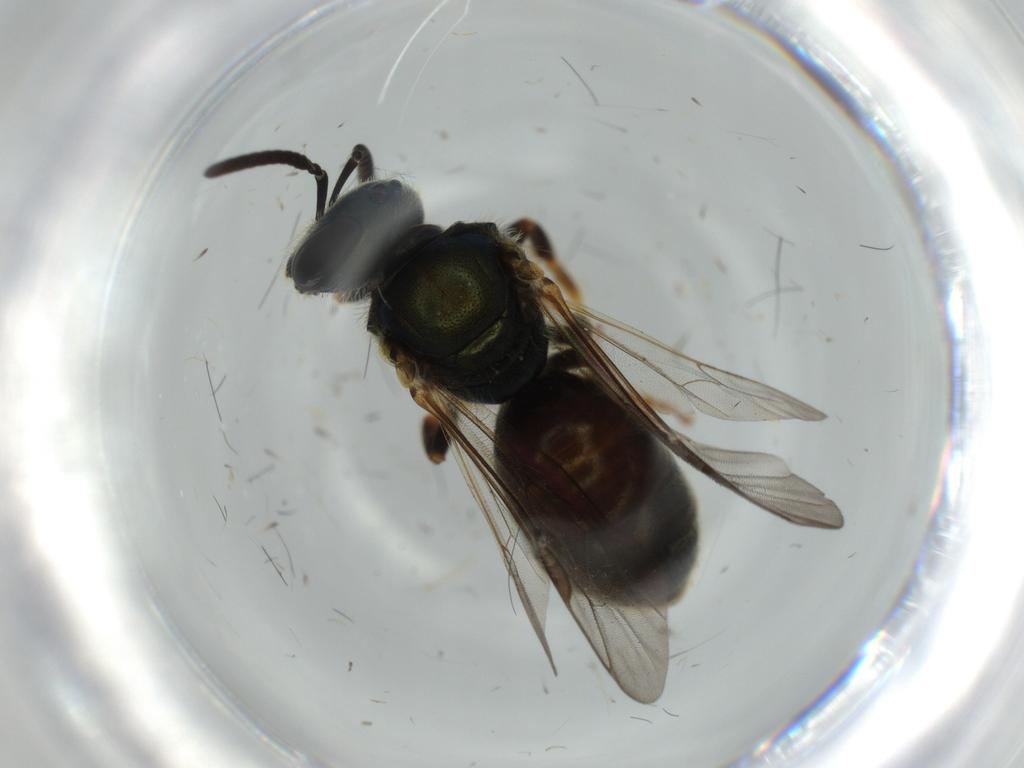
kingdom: Animalia
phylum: Arthropoda
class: Insecta
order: Hymenoptera
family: Halictidae
